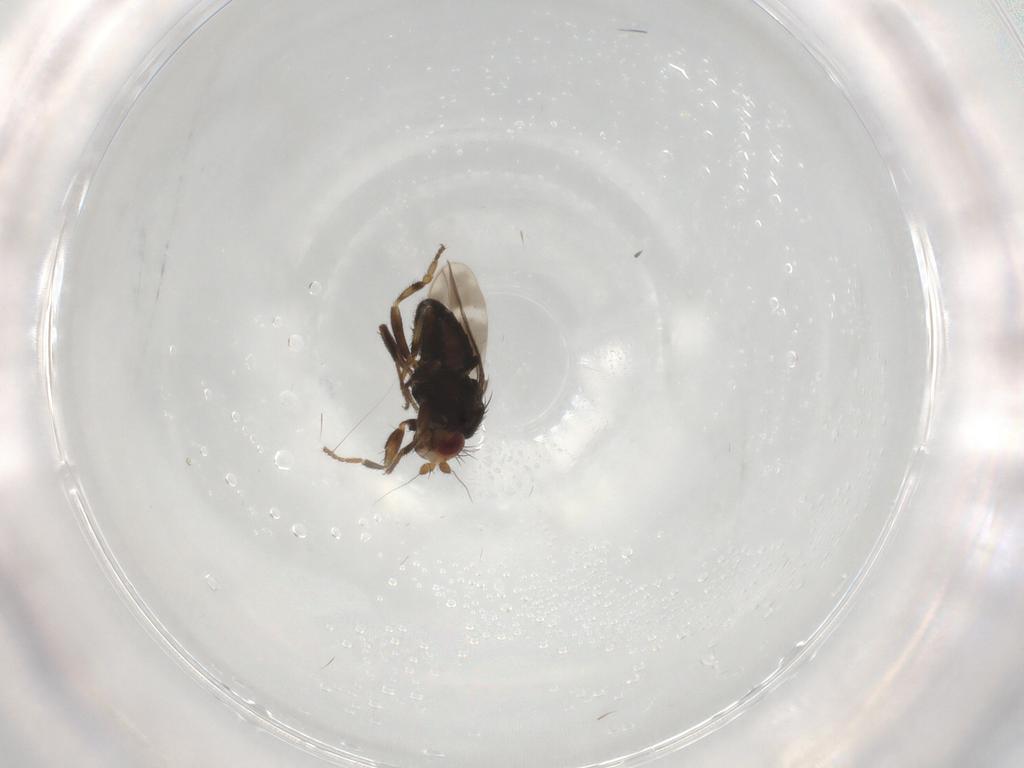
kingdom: Animalia
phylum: Arthropoda
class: Insecta
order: Diptera
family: Sphaeroceridae
